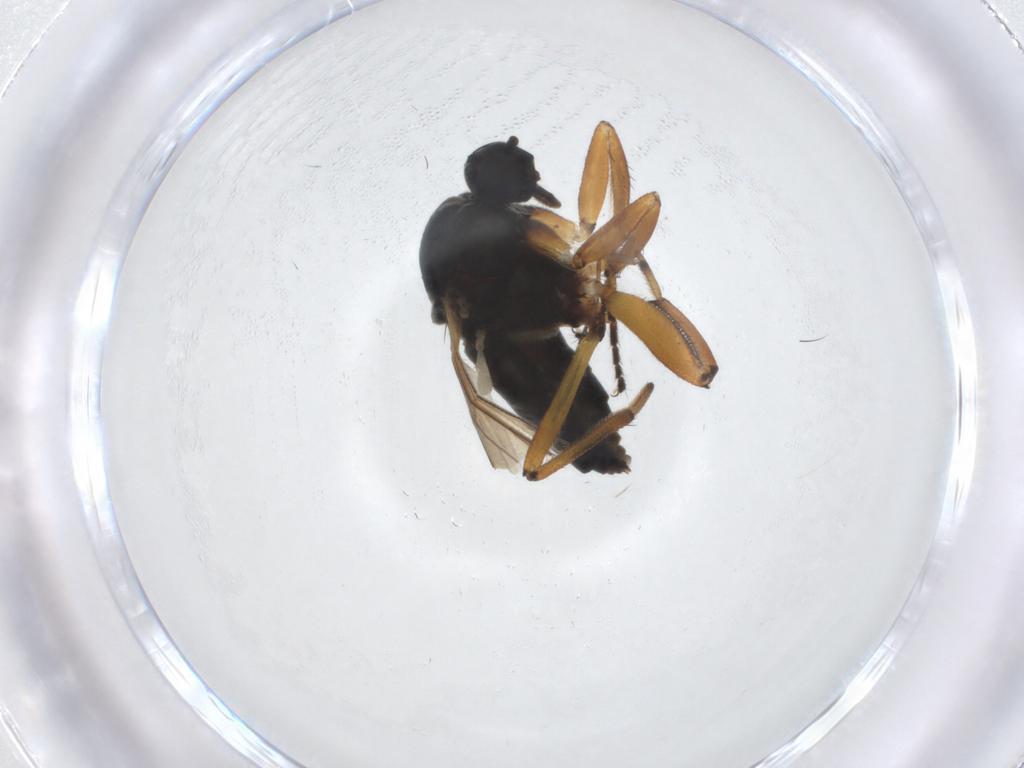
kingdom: Animalia
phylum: Arthropoda
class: Insecta
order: Diptera
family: Hybotidae
